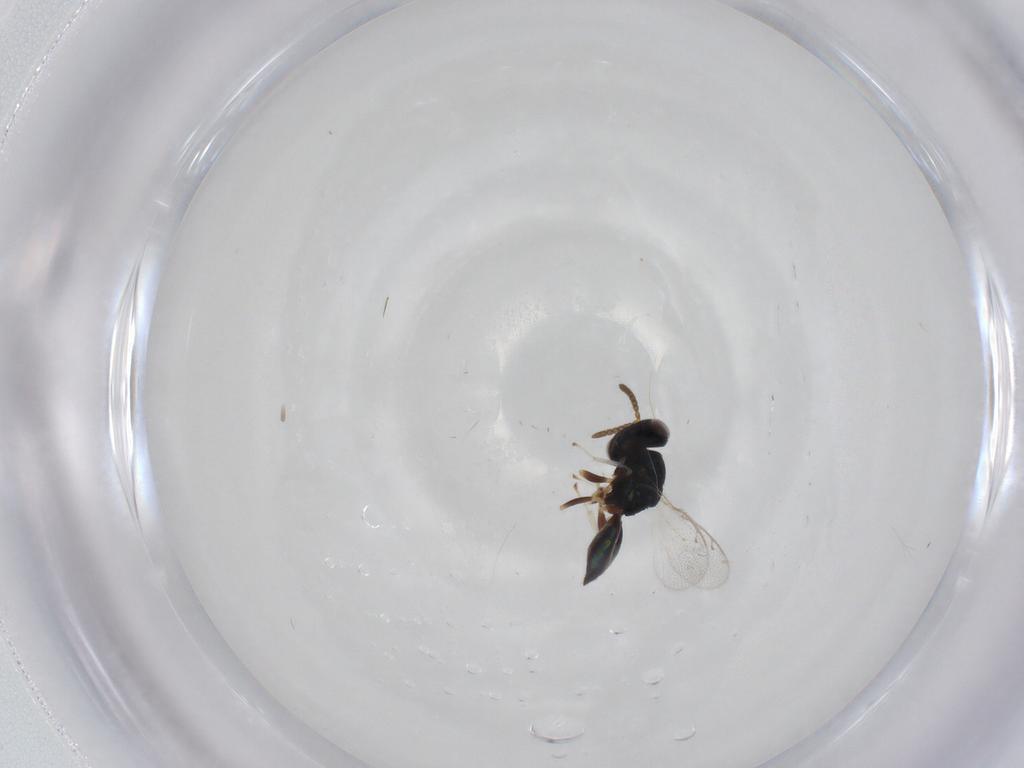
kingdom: Animalia
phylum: Arthropoda
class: Insecta
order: Hymenoptera
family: Pteromalidae
